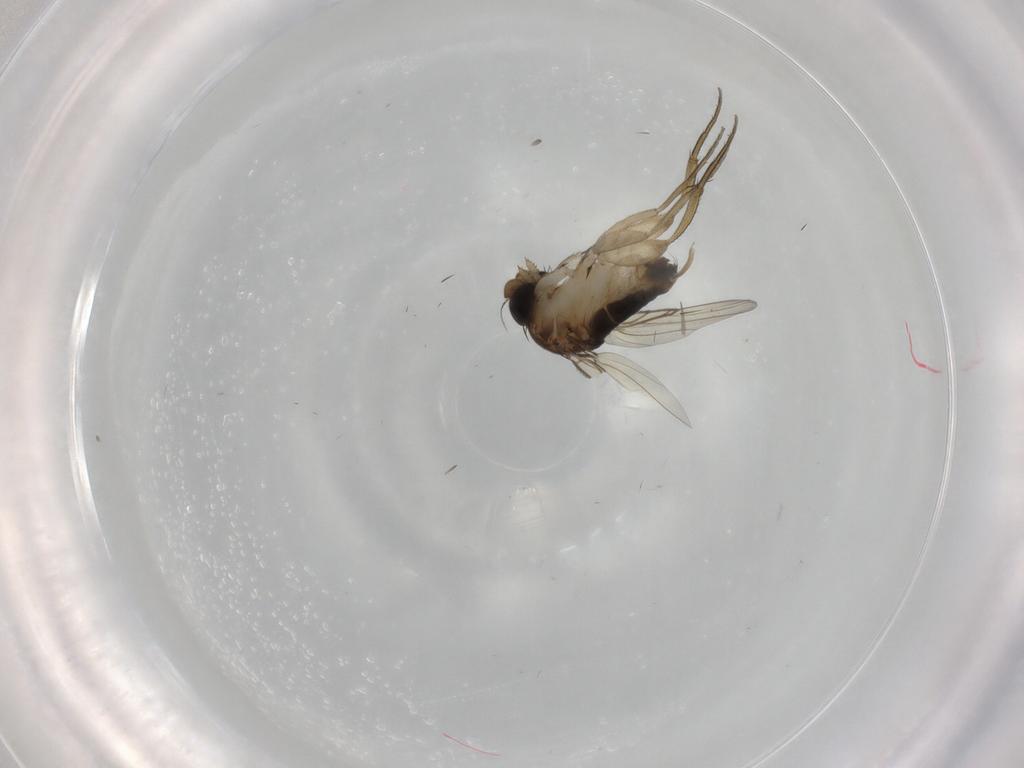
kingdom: Animalia
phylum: Arthropoda
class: Insecta
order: Diptera
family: Phoridae
